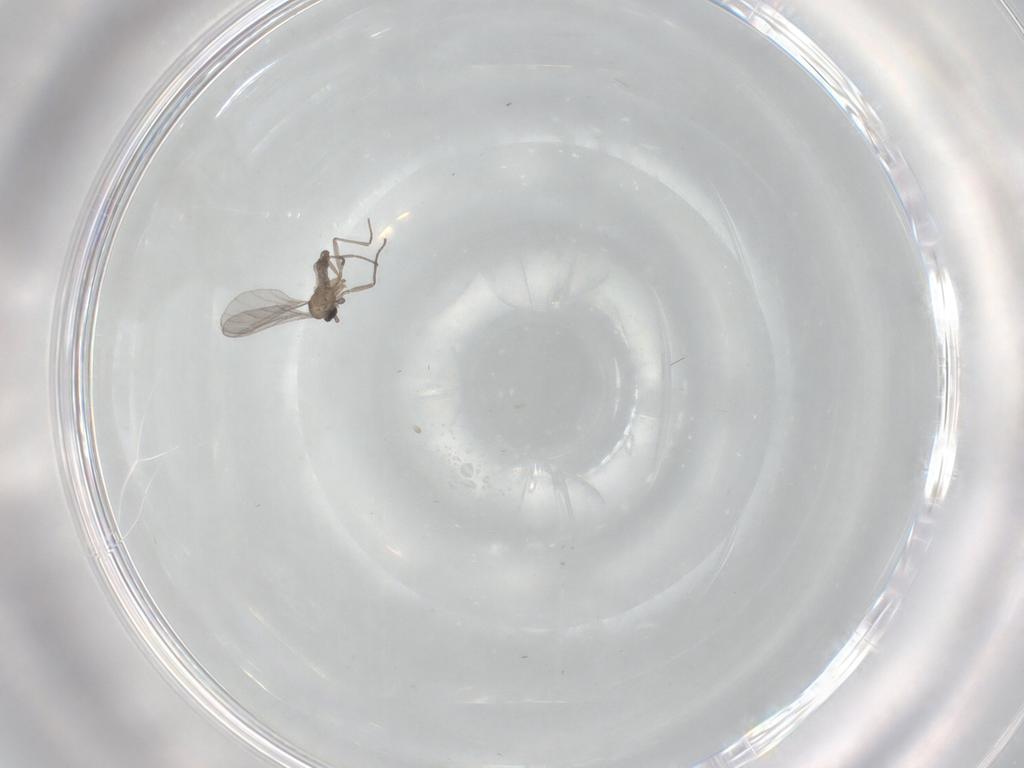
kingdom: Animalia
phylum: Arthropoda
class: Insecta
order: Diptera
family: Sciaridae
